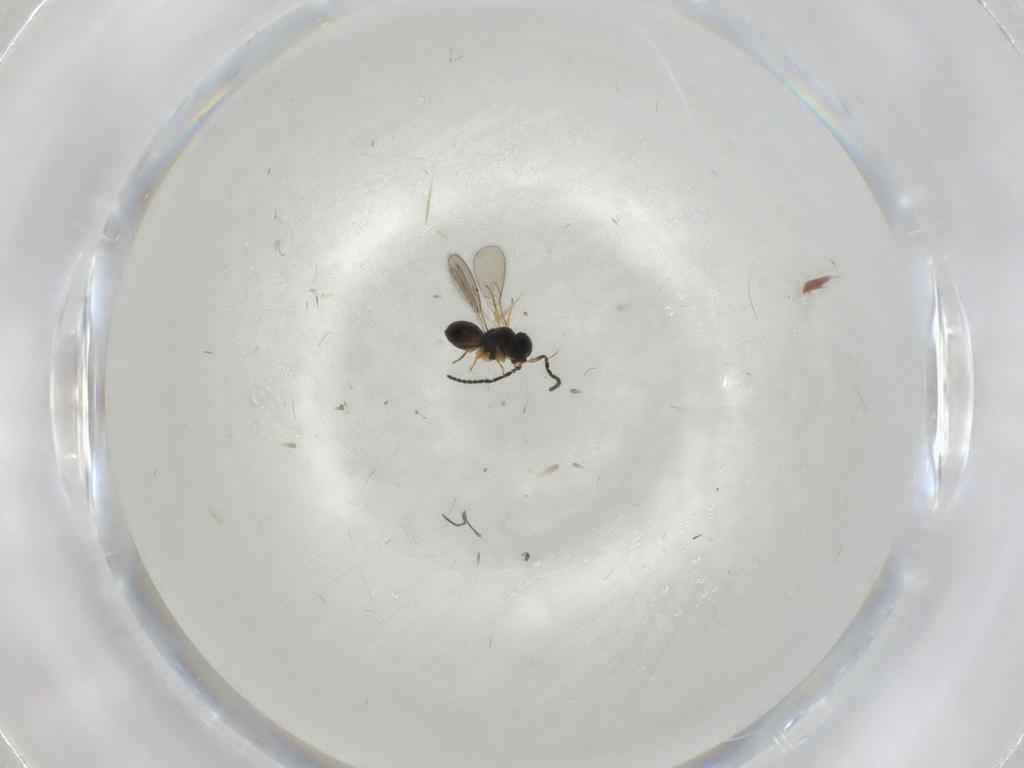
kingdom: Animalia
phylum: Arthropoda
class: Insecta
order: Hymenoptera
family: Scelionidae
